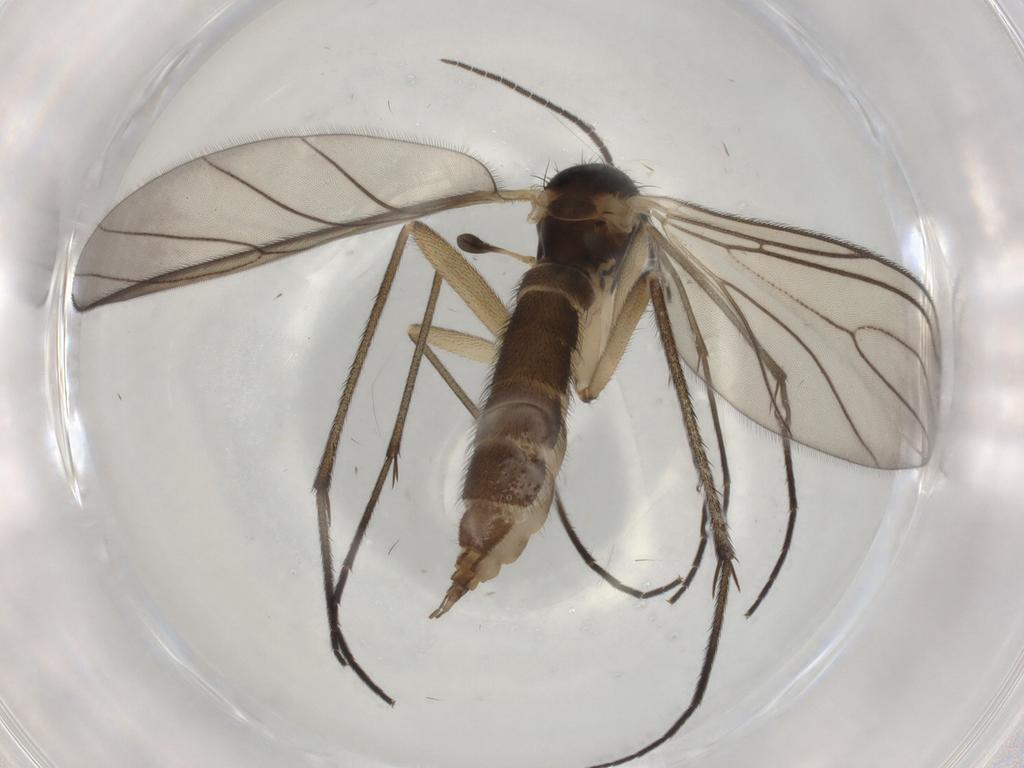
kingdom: Animalia
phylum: Arthropoda
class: Insecta
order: Diptera
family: Sciaridae
